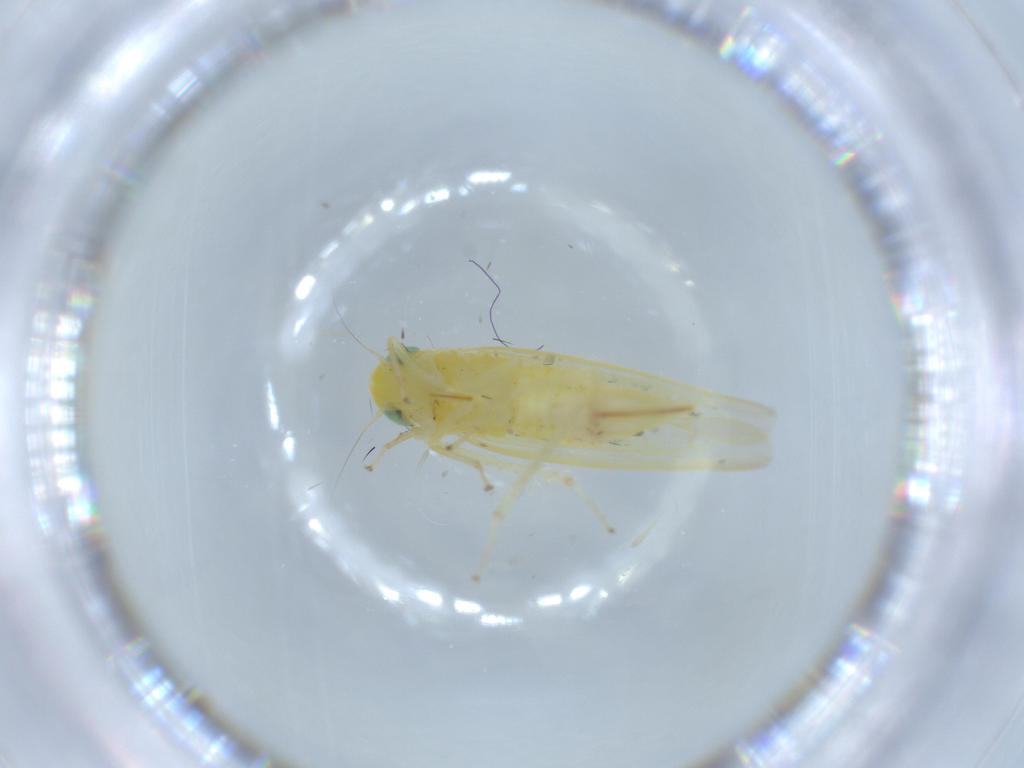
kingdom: Animalia
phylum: Arthropoda
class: Insecta
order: Hemiptera
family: Cicadellidae
